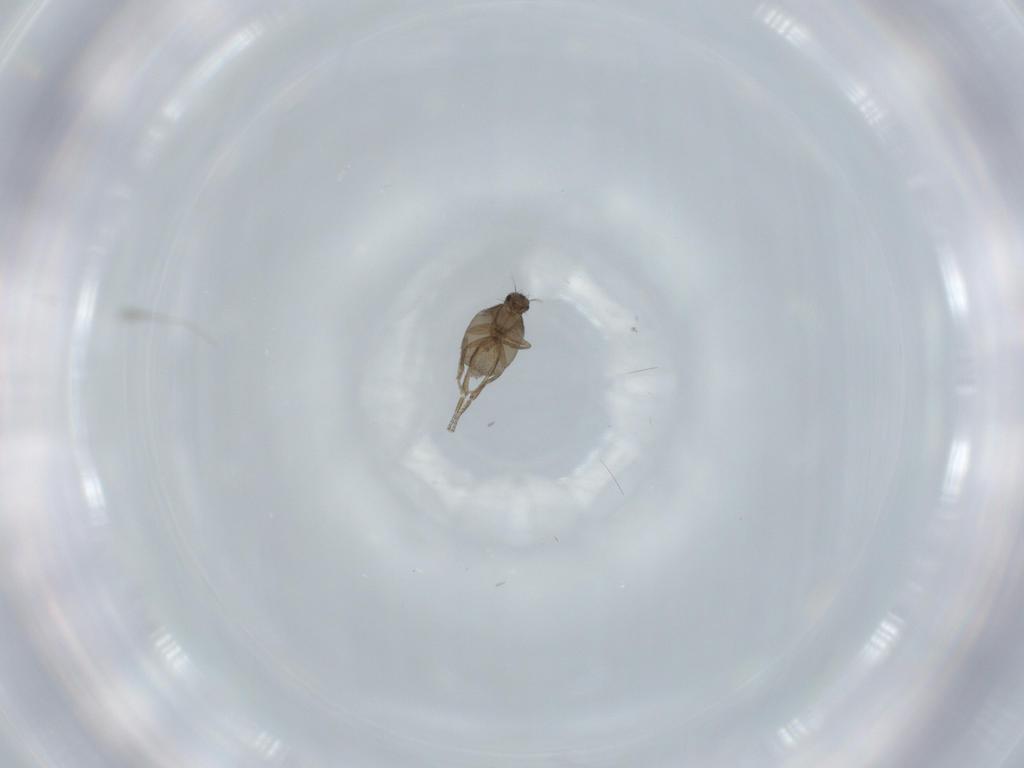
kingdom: Animalia
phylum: Arthropoda
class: Insecta
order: Diptera
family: Phoridae
